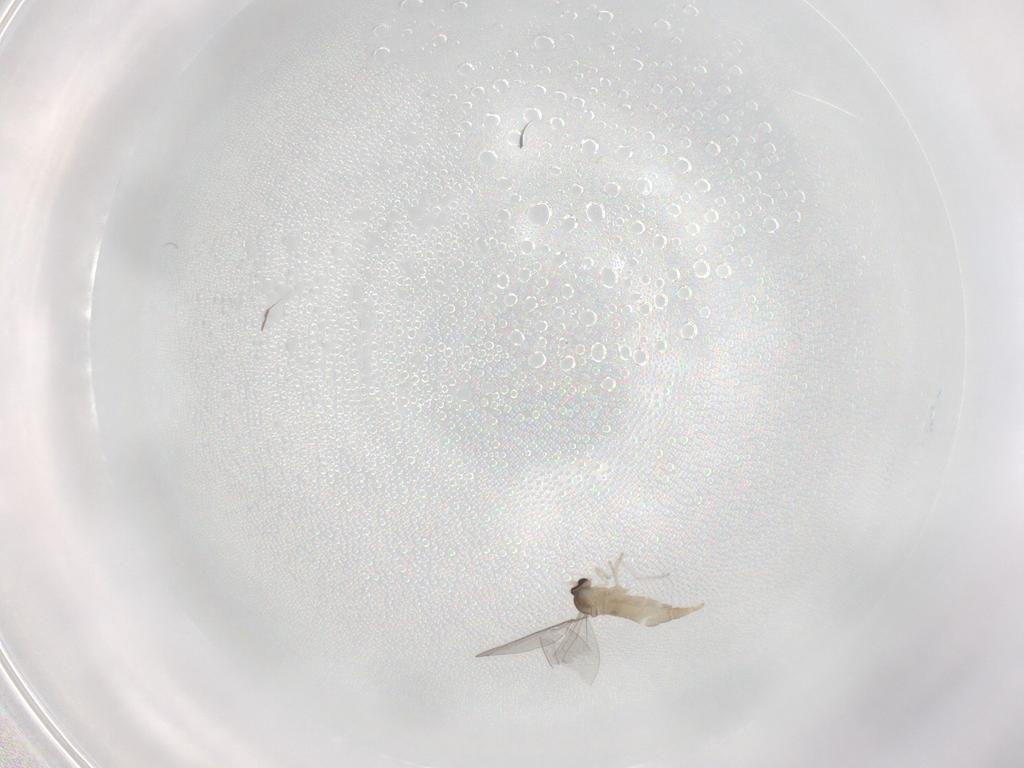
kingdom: Animalia
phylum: Arthropoda
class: Insecta
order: Diptera
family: Cecidomyiidae
